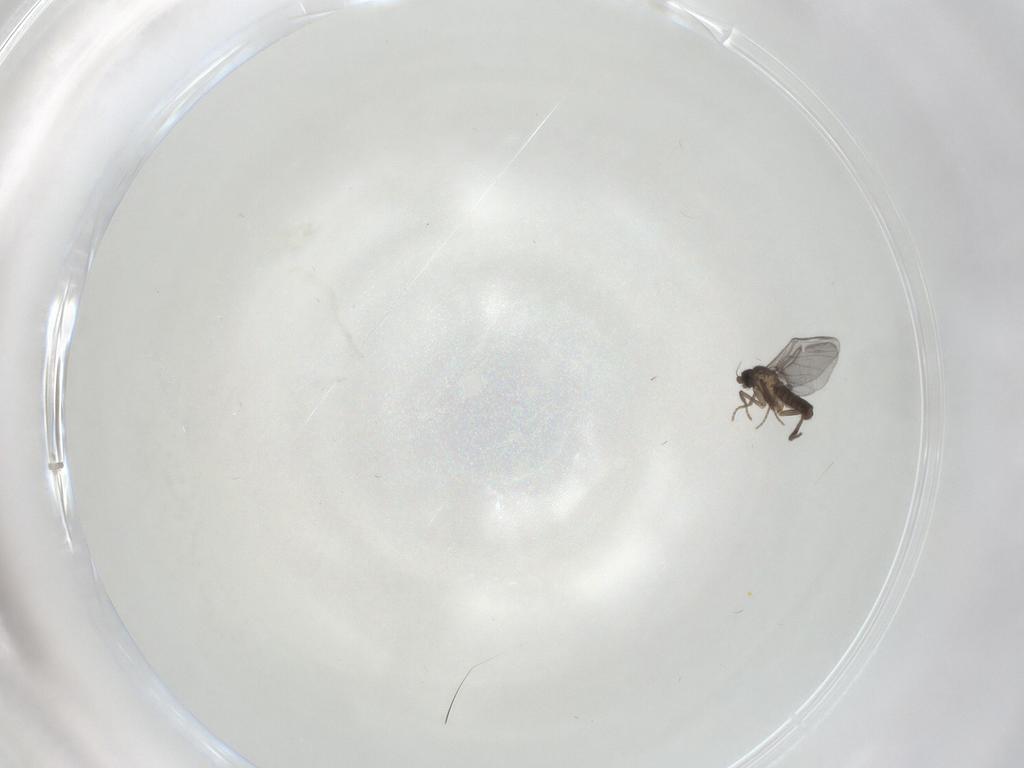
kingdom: Animalia
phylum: Arthropoda
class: Insecta
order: Diptera
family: Phoridae
